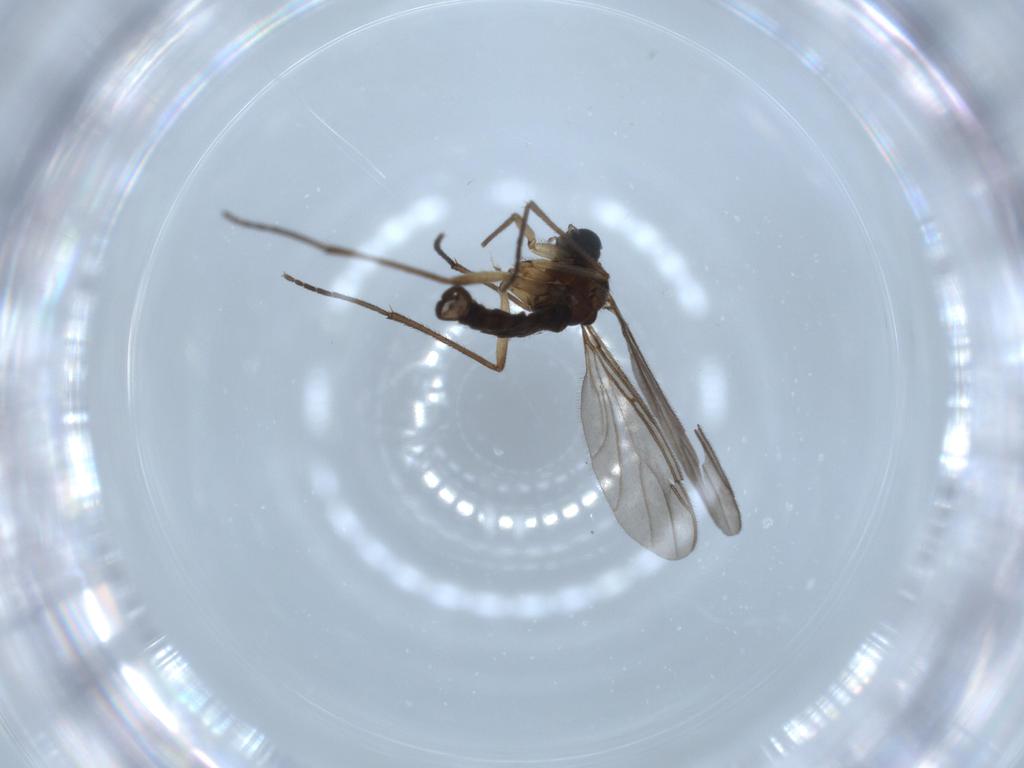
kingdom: Animalia
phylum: Arthropoda
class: Insecta
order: Diptera
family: Sciaridae
